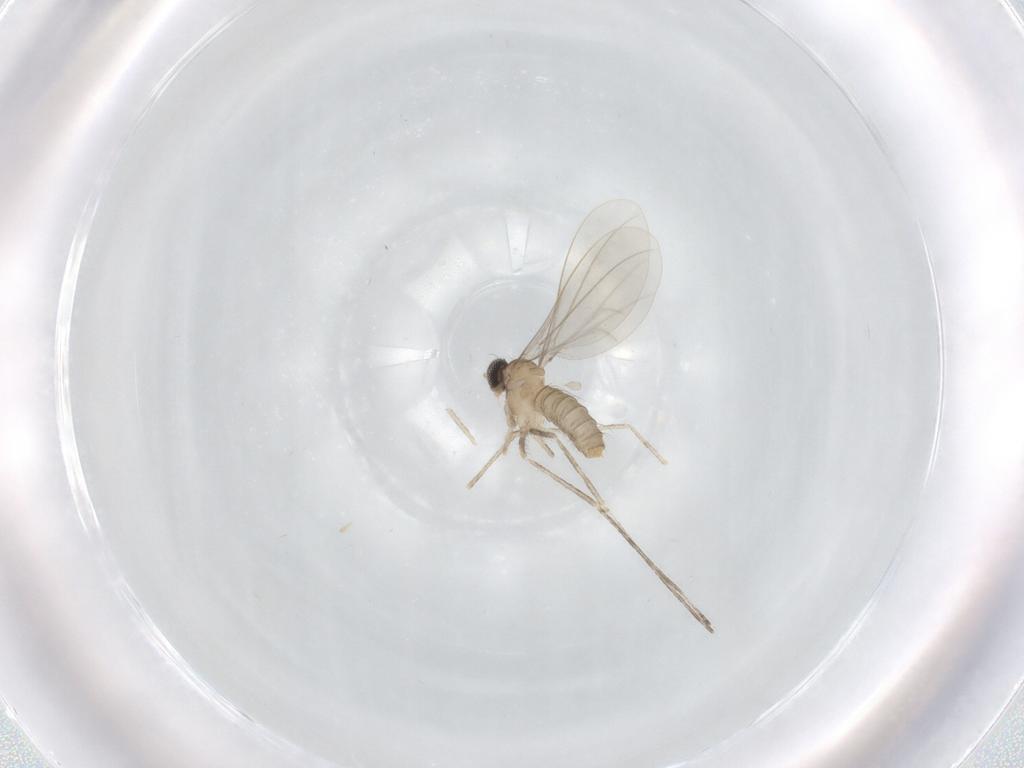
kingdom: Animalia
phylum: Arthropoda
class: Insecta
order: Diptera
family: Cecidomyiidae
